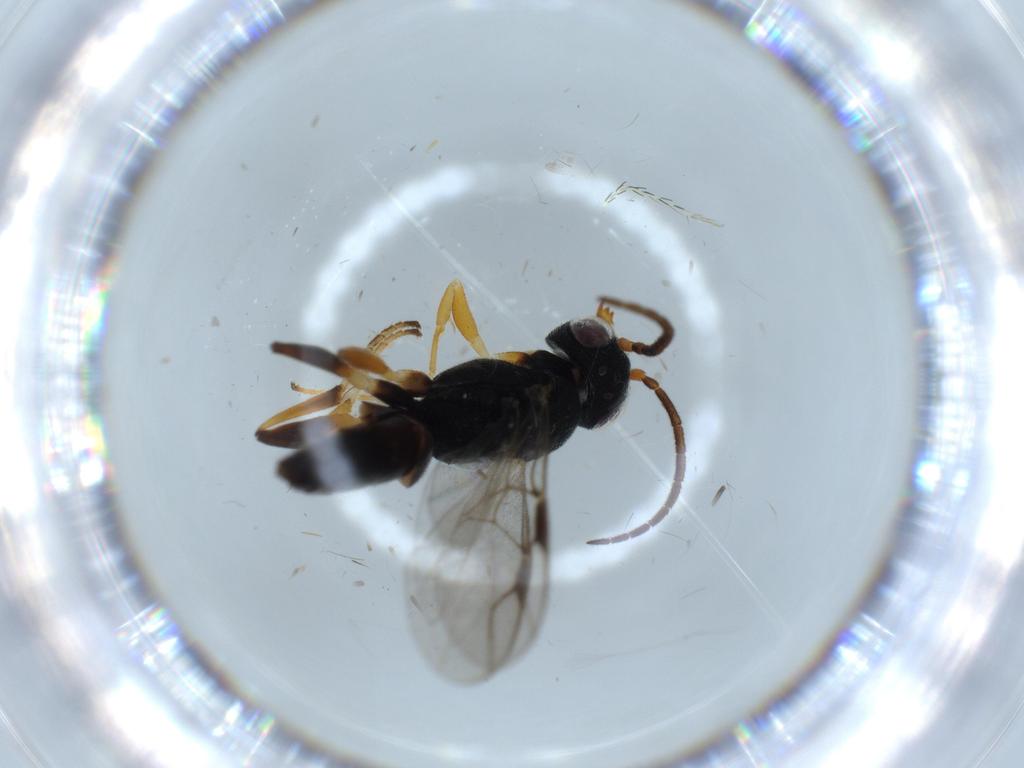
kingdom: Animalia
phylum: Arthropoda
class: Insecta
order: Hymenoptera
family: Dryinidae
